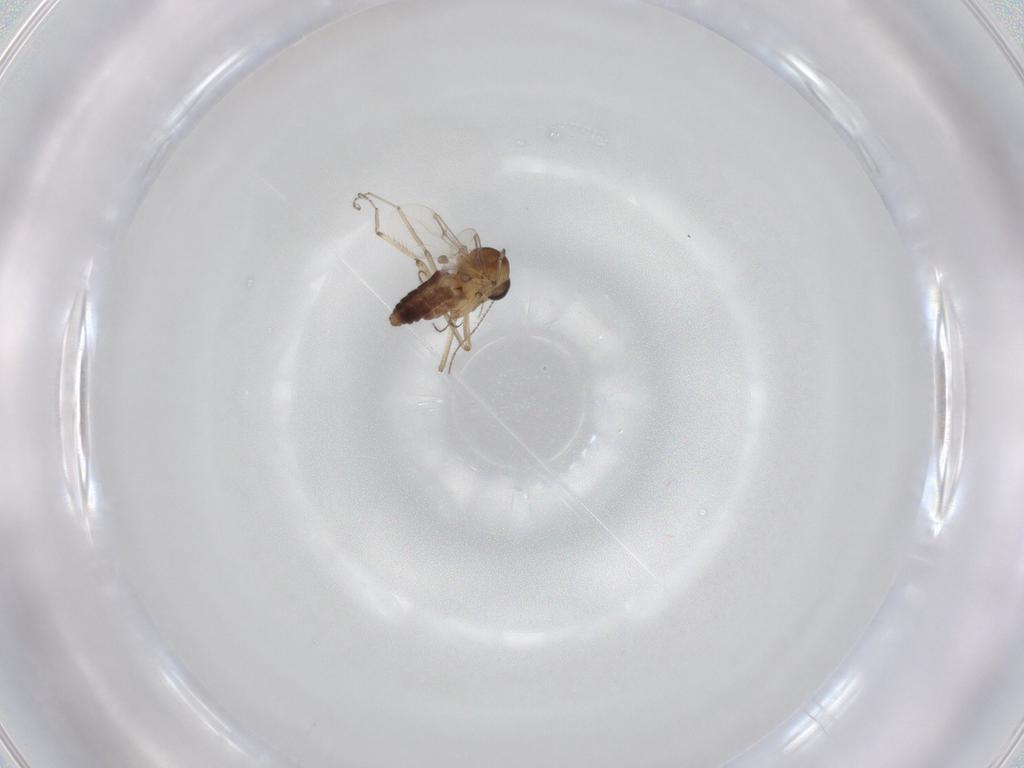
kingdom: Animalia
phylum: Arthropoda
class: Insecta
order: Diptera
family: Ceratopogonidae
